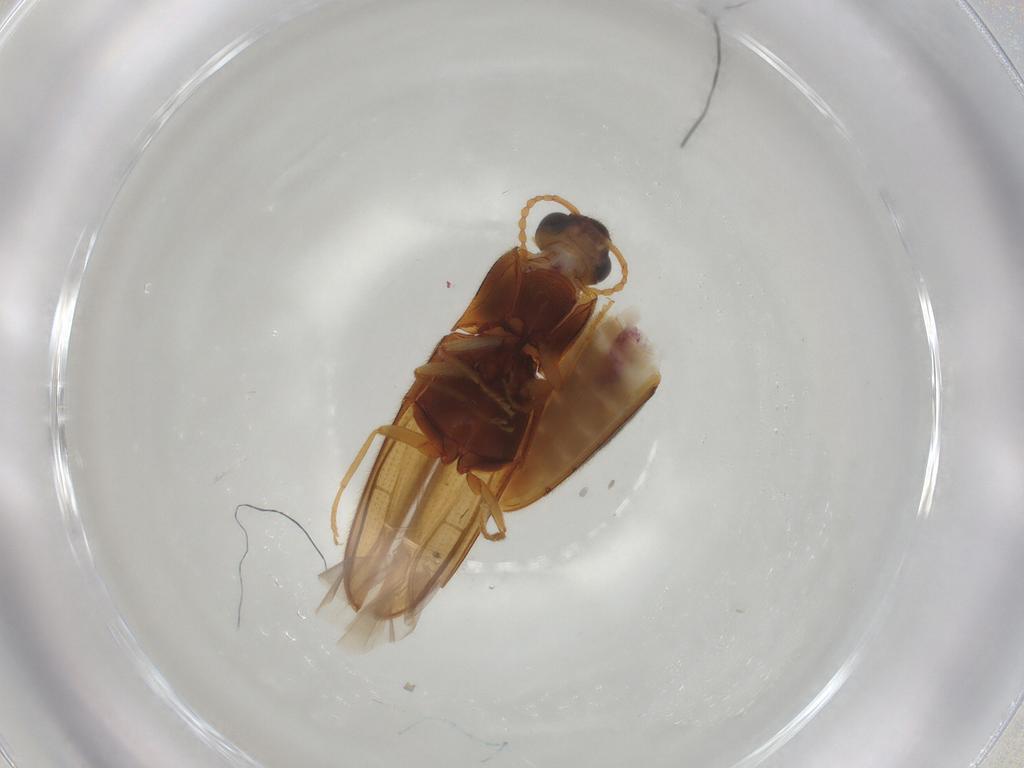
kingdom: Animalia
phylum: Arthropoda
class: Insecta
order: Coleoptera
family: Elateridae
